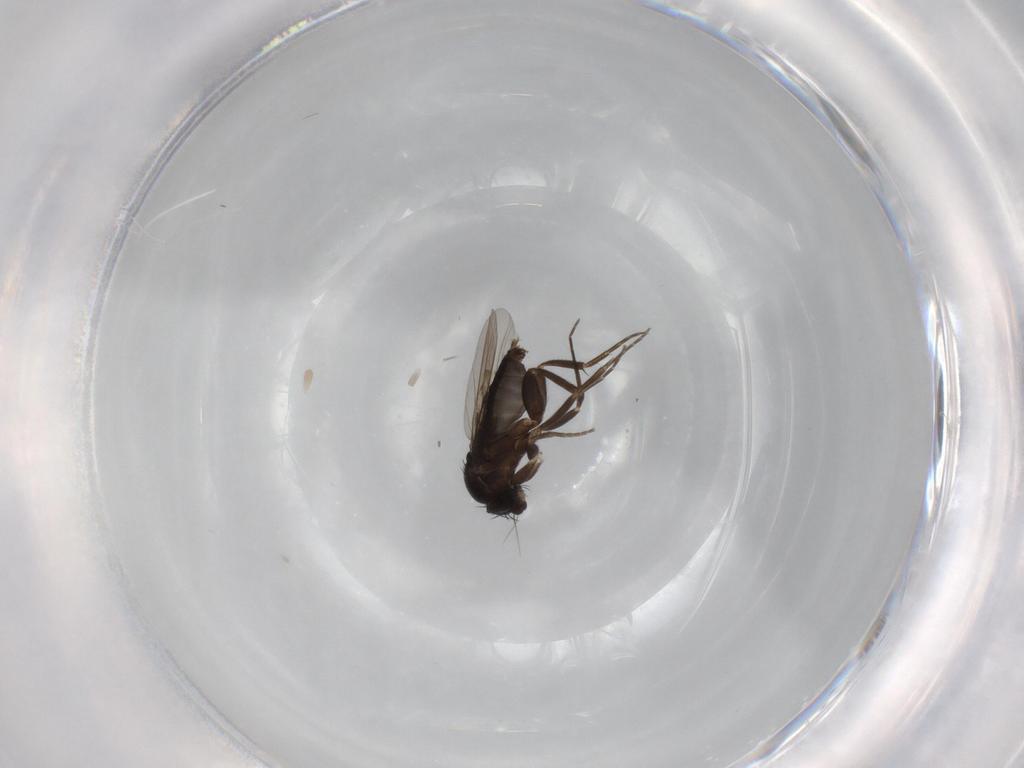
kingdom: Animalia
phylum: Arthropoda
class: Insecta
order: Diptera
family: Phoridae
